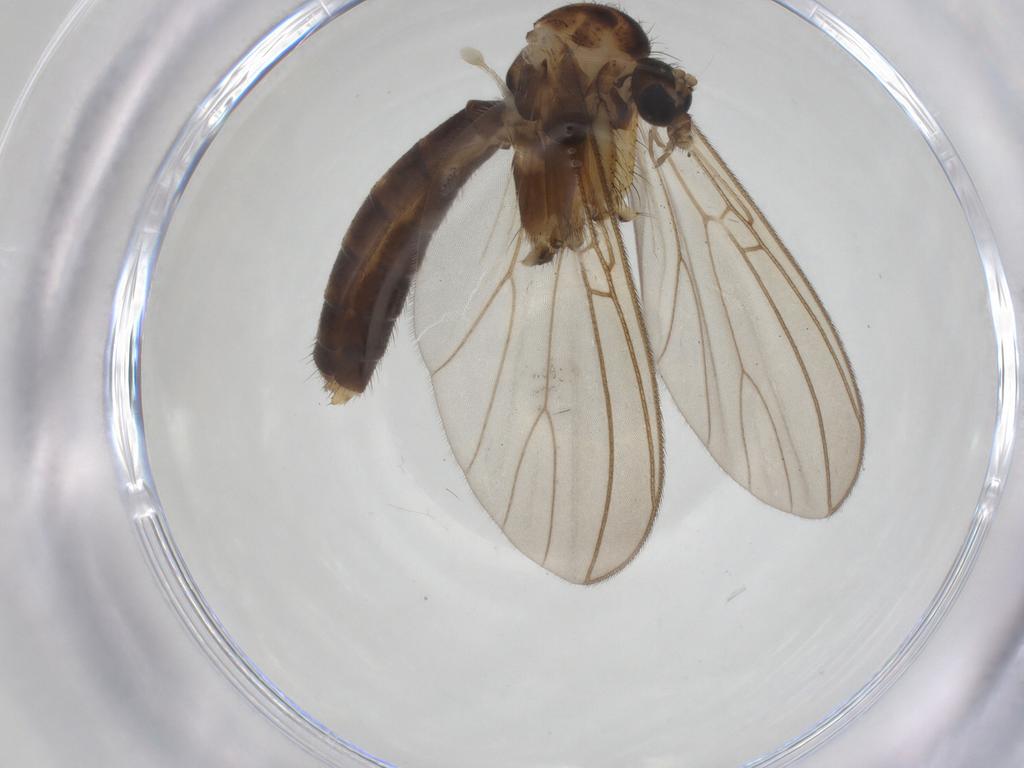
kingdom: Animalia
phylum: Arthropoda
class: Insecta
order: Diptera
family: Mycetophilidae
